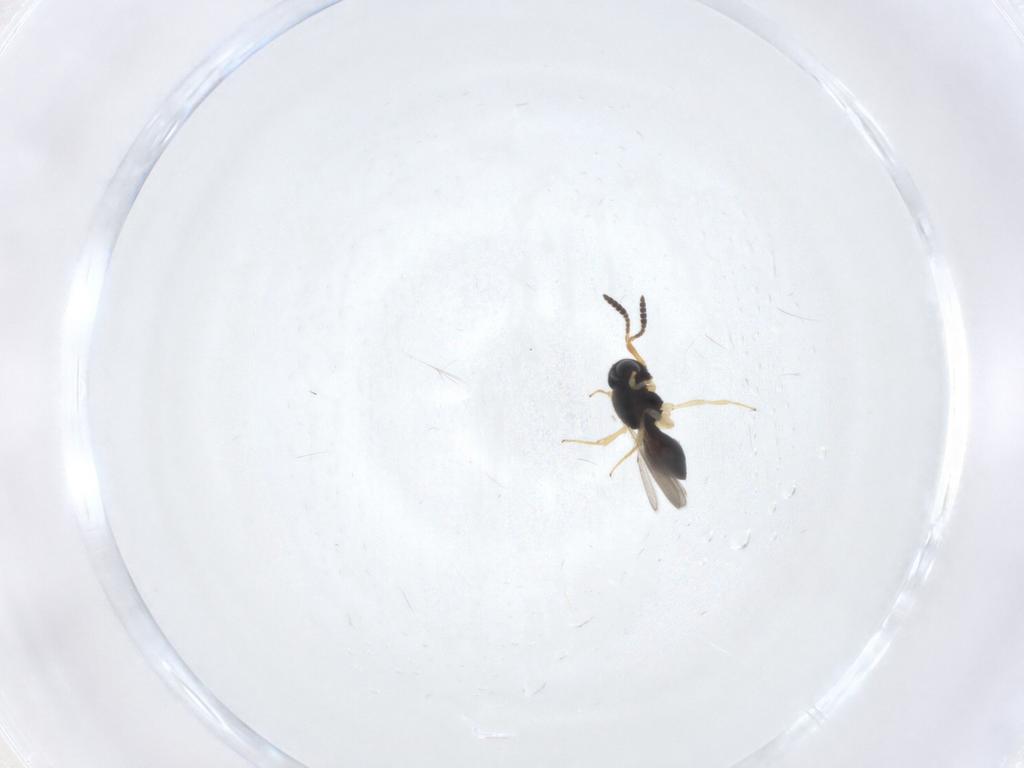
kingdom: Animalia
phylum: Arthropoda
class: Insecta
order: Hymenoptera
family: Scelionidae
